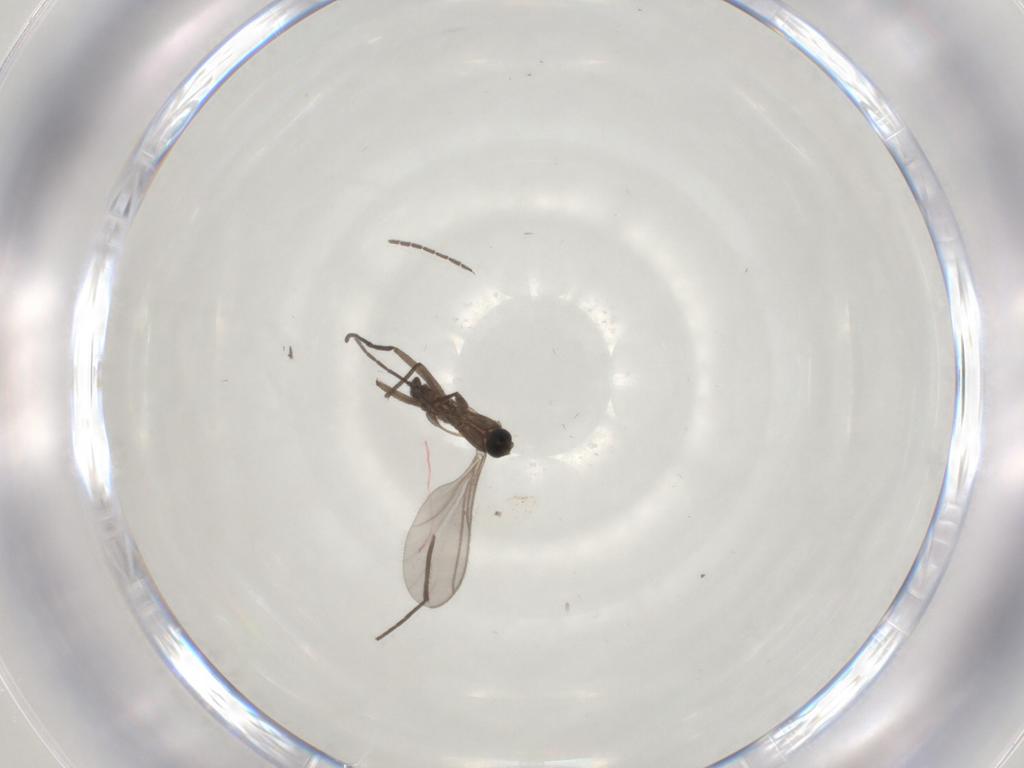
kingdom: Animalia
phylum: Arthropoda
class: Insecta
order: Diptera
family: Sciaridae
